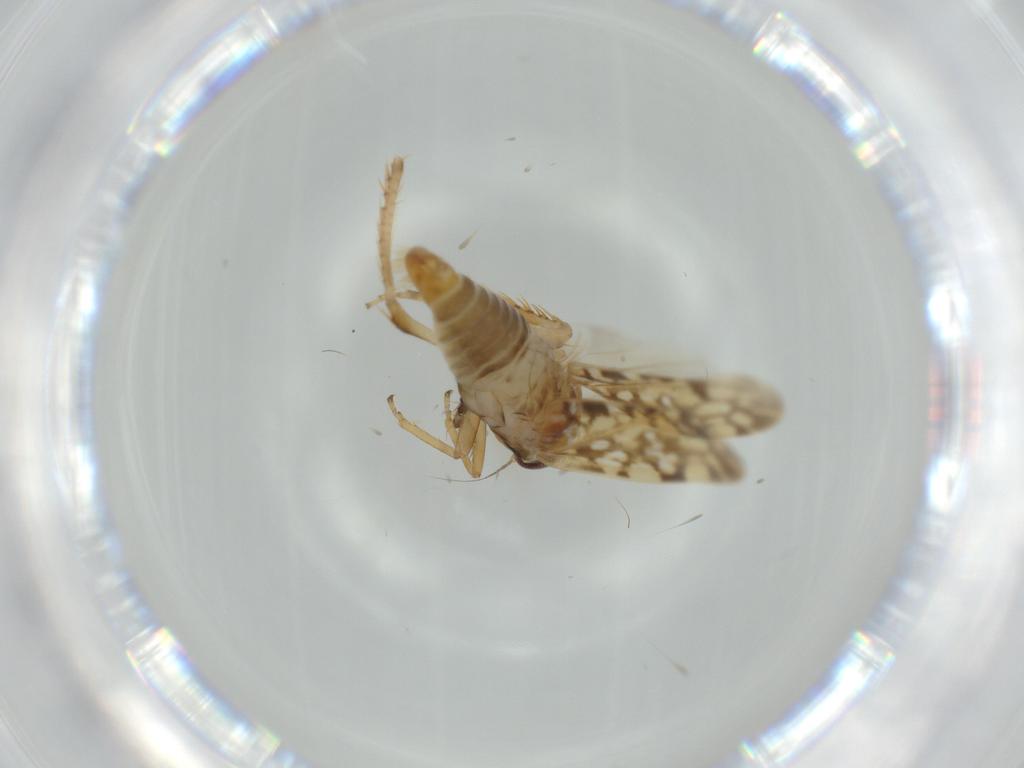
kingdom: Animalia
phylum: Arthropoda
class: Insecta
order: Hemiptera
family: Cicadellidae
